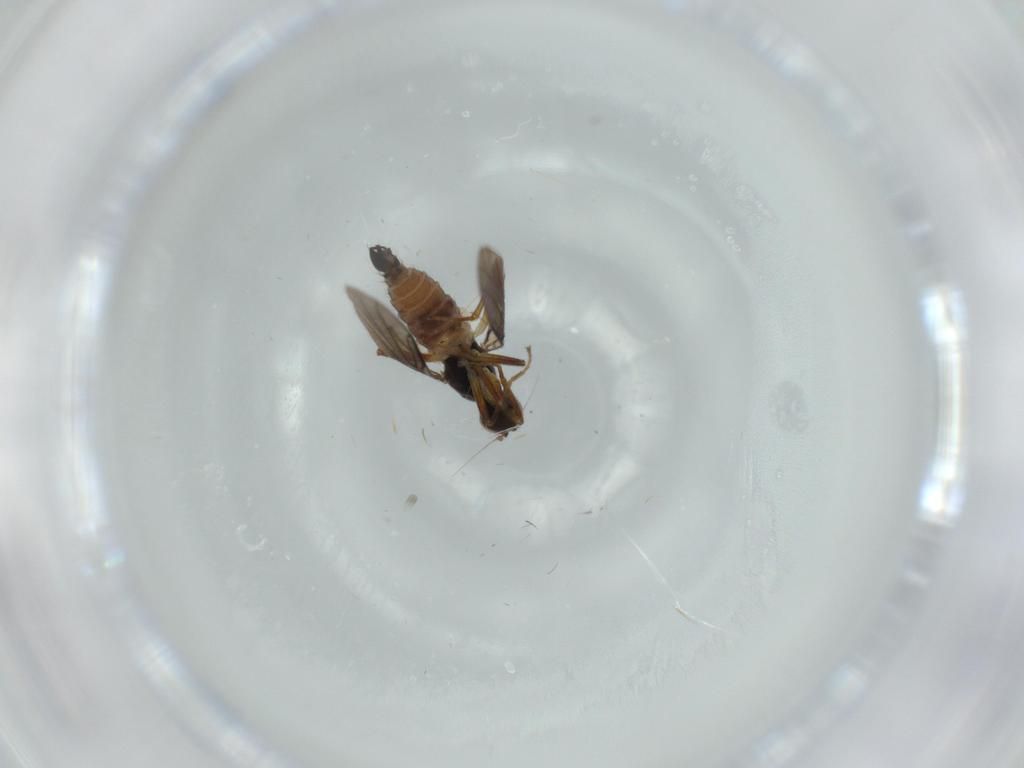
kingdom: Animalia
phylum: Arthropoda
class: Insecta
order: Diptera
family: Hybotidae
